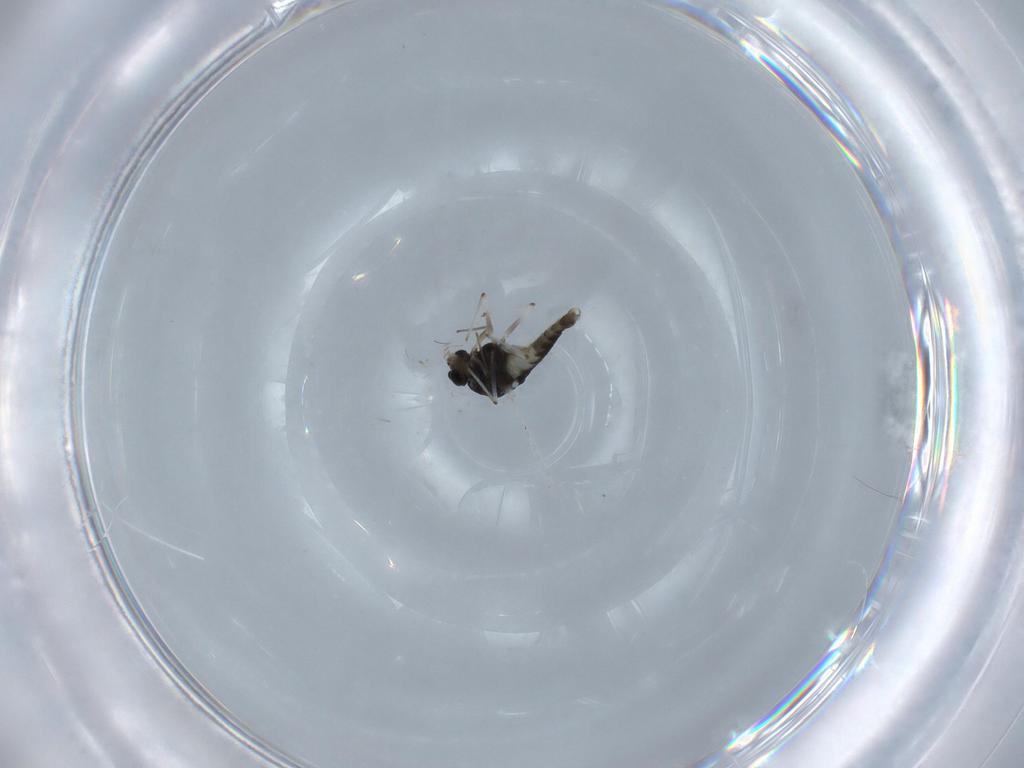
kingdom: Animalia
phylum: Arthropoda
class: Insecta
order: Diptera
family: Chironomidae
